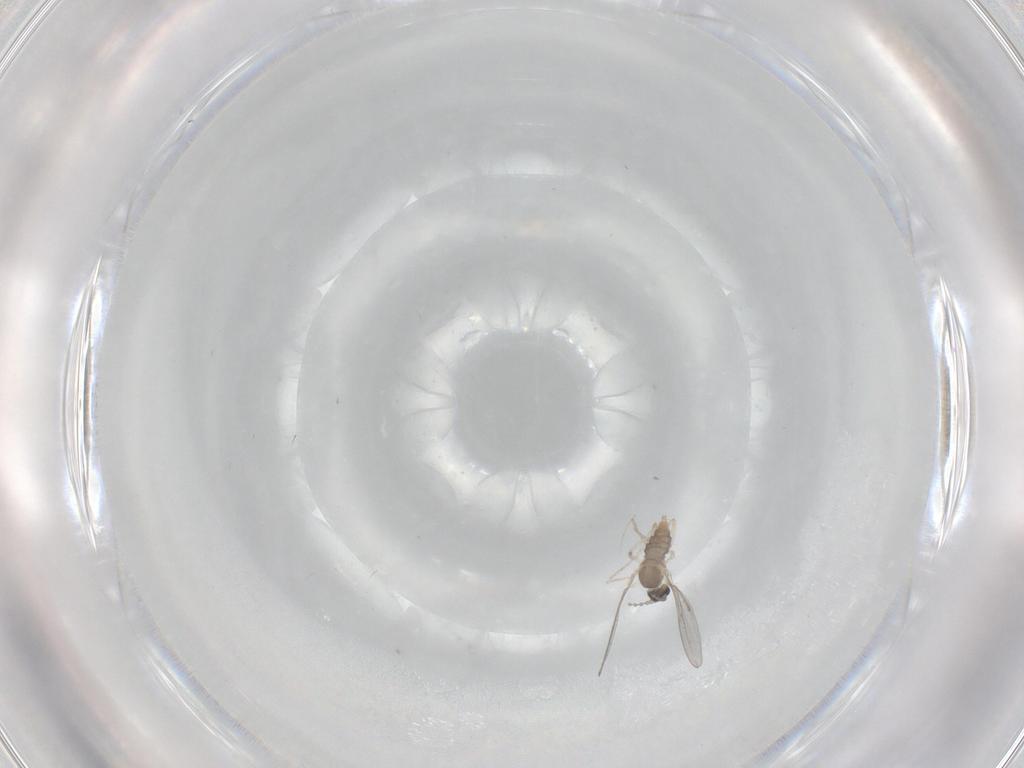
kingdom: Animalia
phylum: Arthropoda
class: Insecta
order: Diptera
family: Cecidomyiidae
